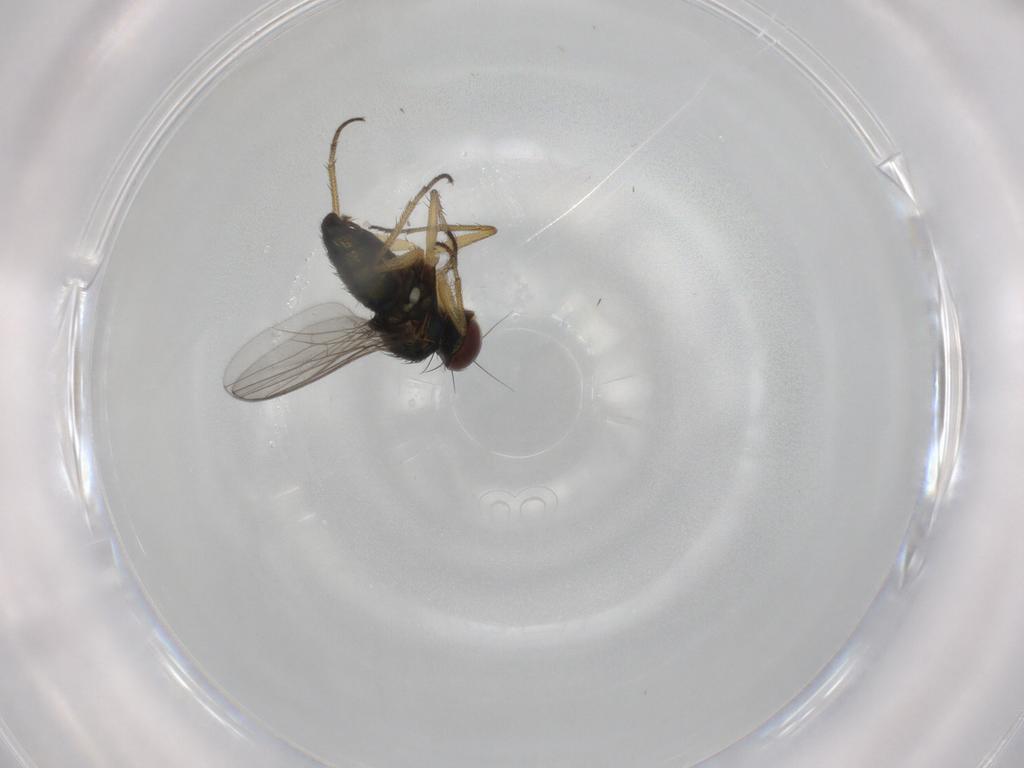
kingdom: Animalia
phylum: Arthropoda
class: Insecta
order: Diptera
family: Dolichopodidae
